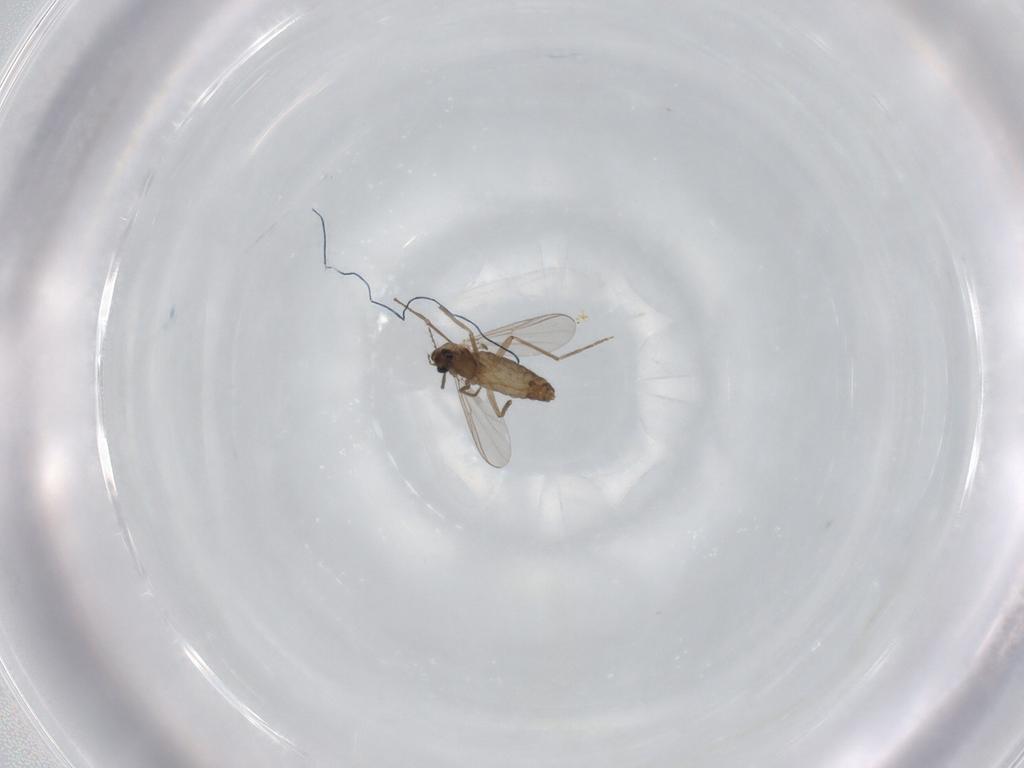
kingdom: Animalia
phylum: Arthropoda
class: Insecta
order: Diptera
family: Chironomidae
